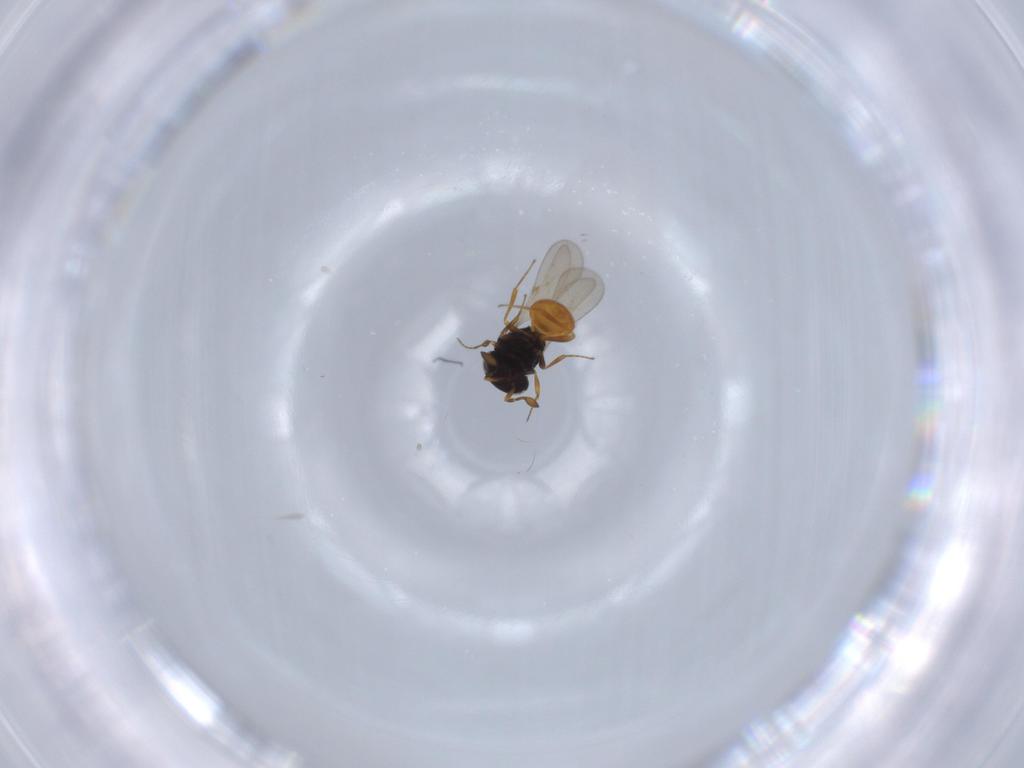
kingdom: Animalia
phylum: Arthropoda
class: Insecta
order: Hymenoptera
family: Scelionidae
